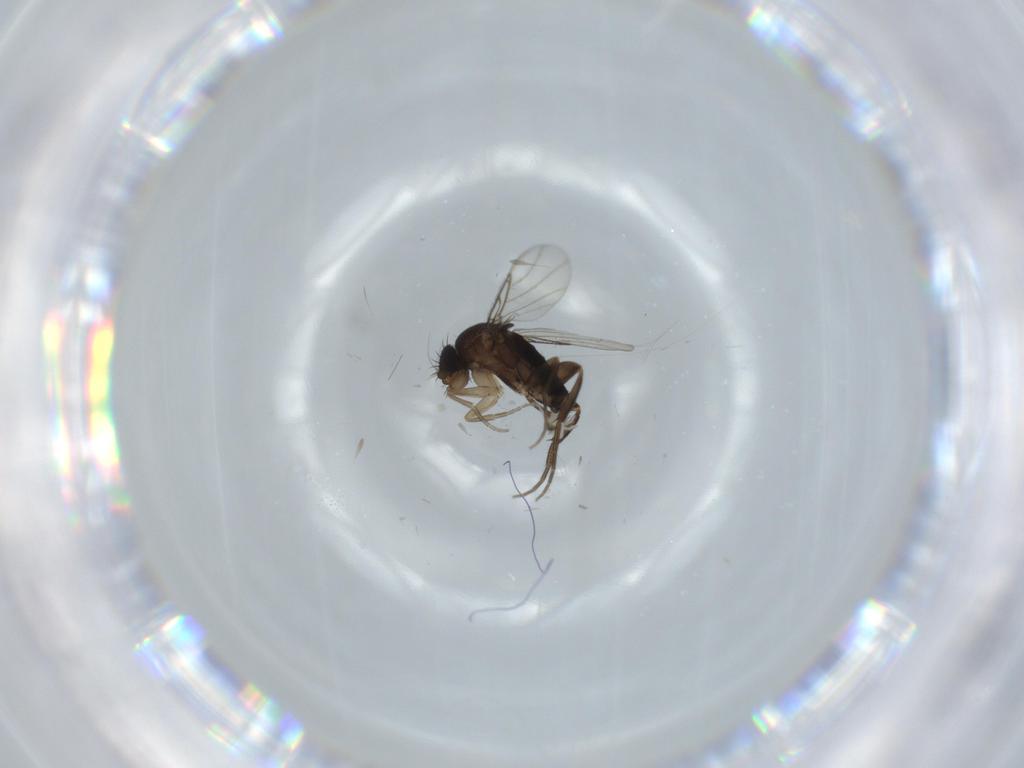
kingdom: Animalia
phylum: Arthropoda
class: Insecta
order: Diptera
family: Phoridae
